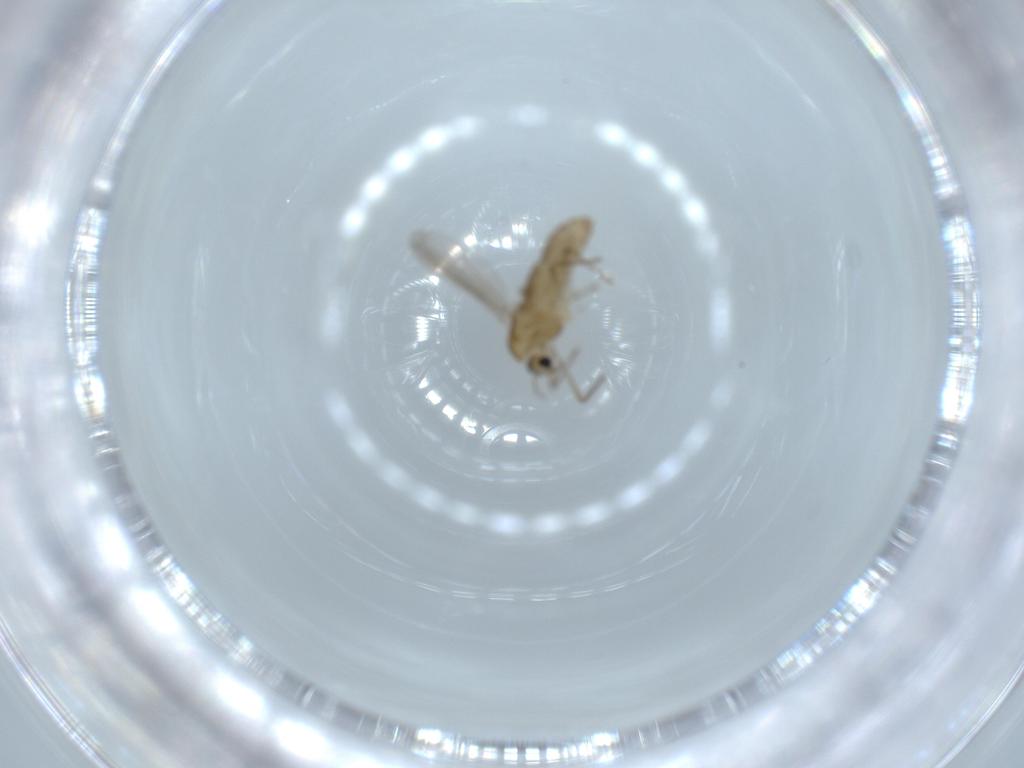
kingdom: Animalia
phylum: Arthropoda
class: Insecta
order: Diptera
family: Chironomidae
